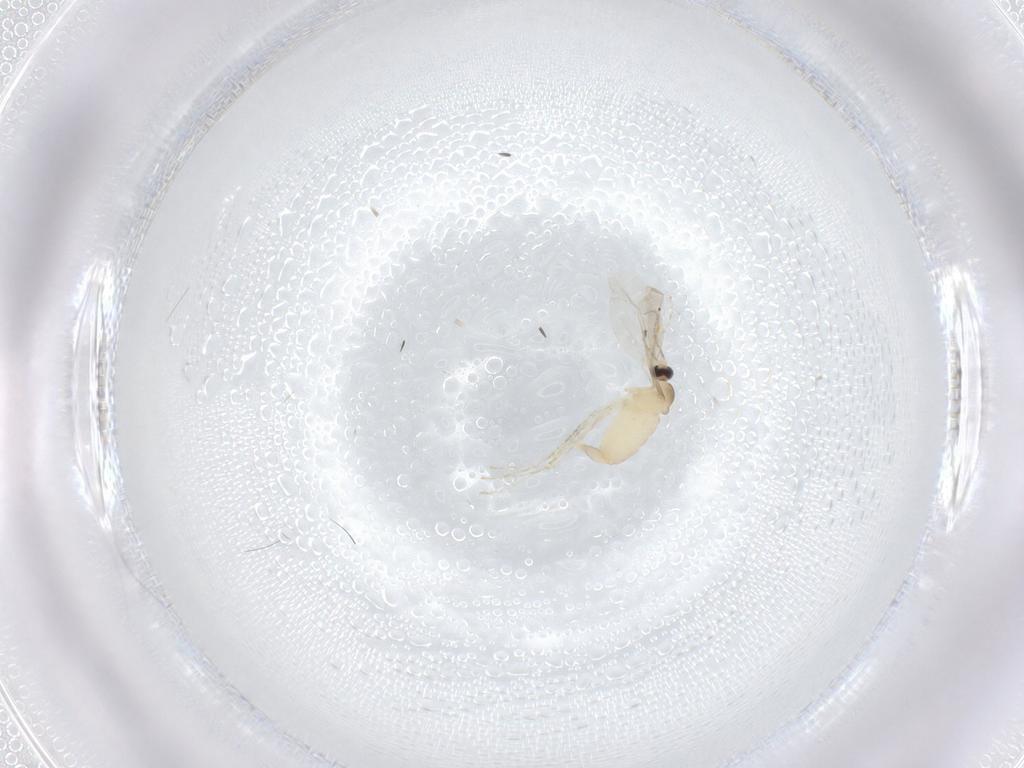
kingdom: Animalia
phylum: Arthropoda
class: Insecta
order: Diptera
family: Cecidomyiidae
